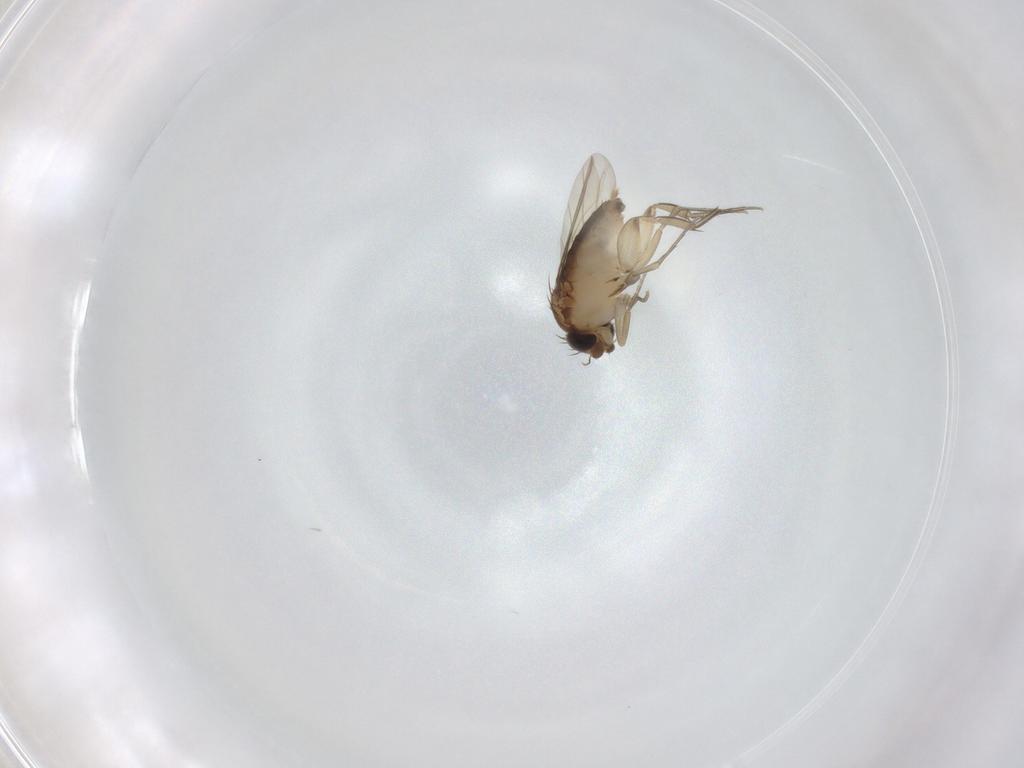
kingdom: Animalia
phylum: Arthropoda
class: Insecta
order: Diptera
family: Phoridae
